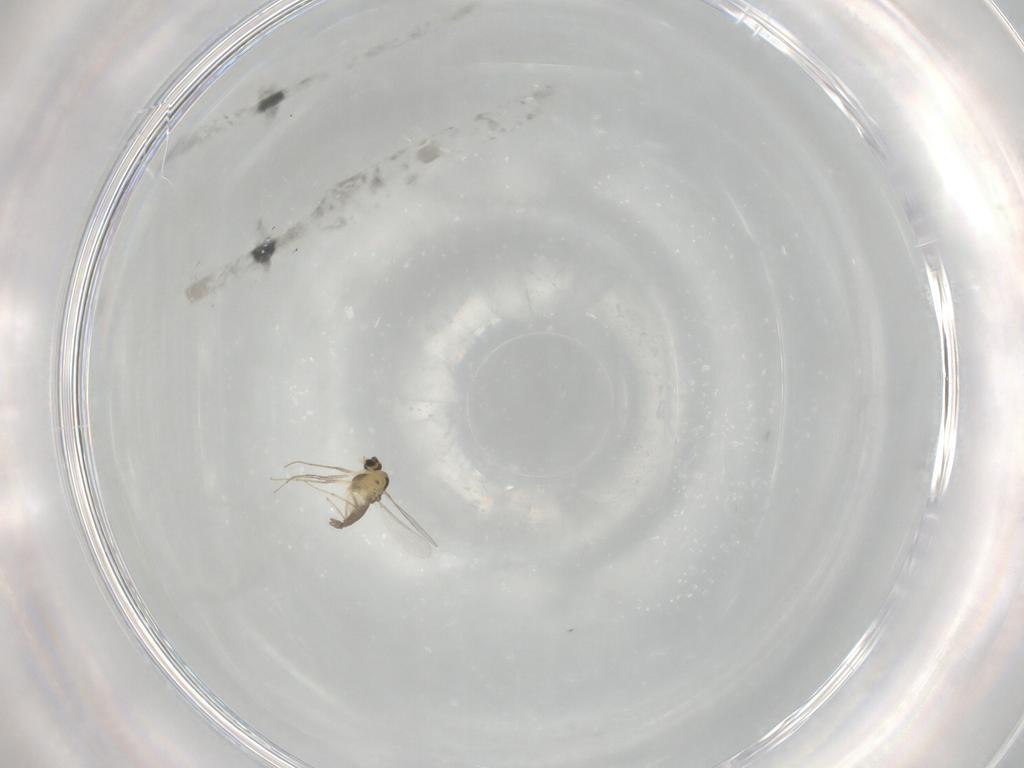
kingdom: Animalia
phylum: Arthropoda
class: Insecta
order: Diptera
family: Chironomidae
